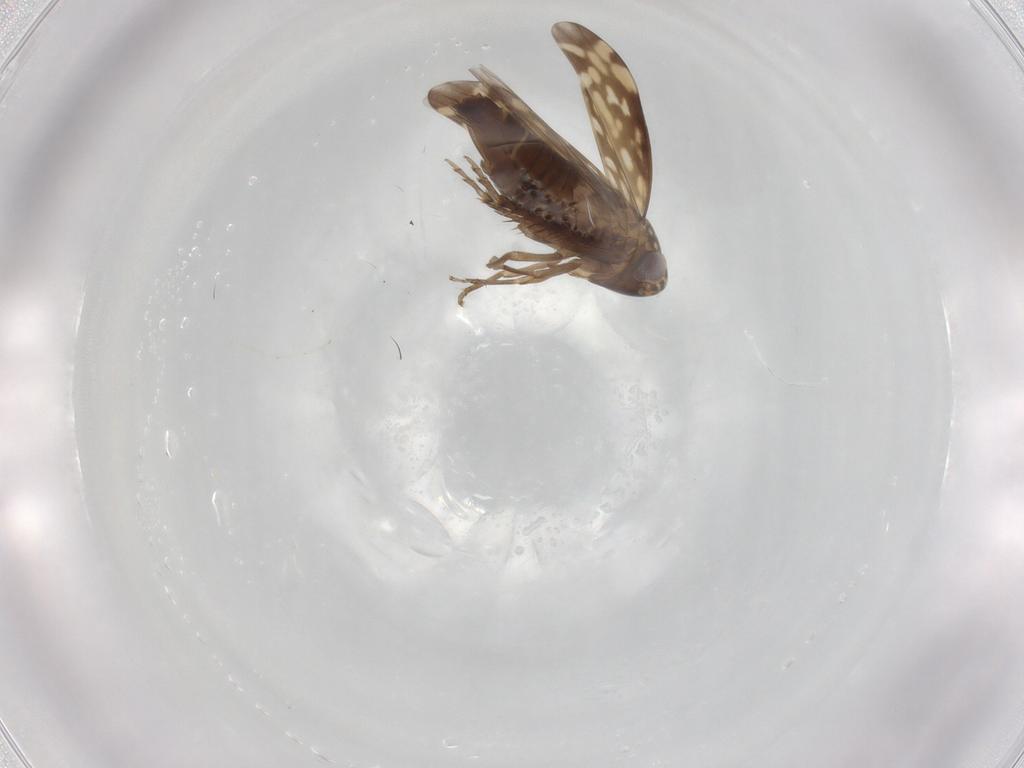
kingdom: Animalia
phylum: Arthropoda
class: Insecta
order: Hemiptera
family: Cicadellidae
